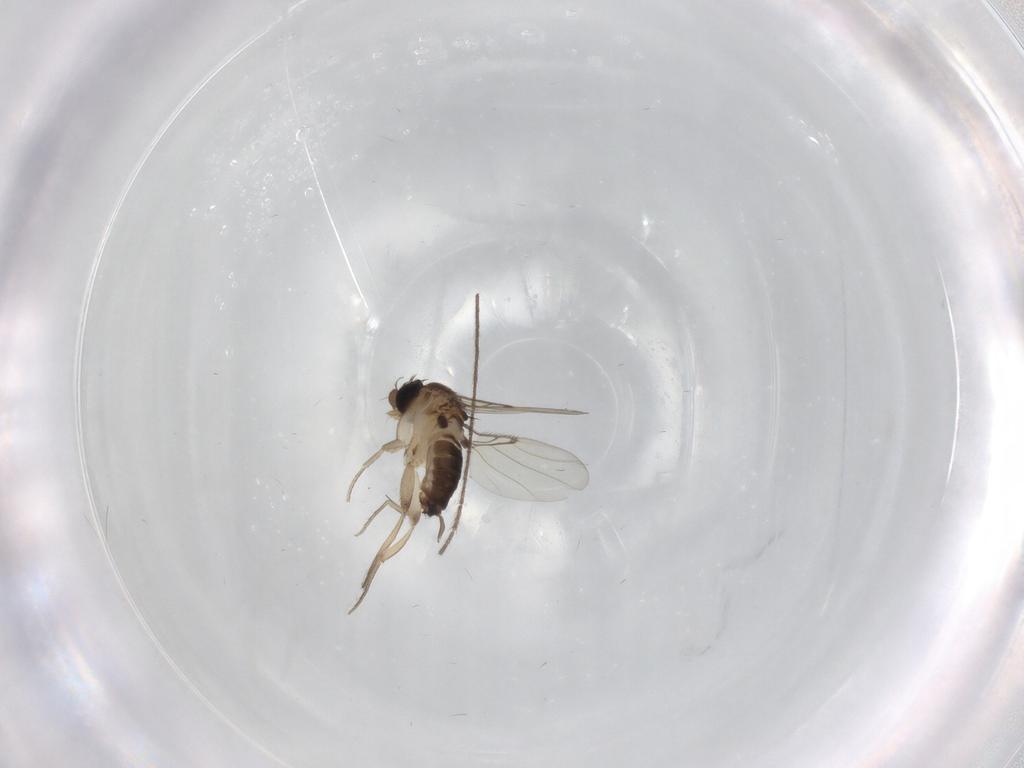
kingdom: Animalia
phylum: Arthropoda
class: Insecta
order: Diptera
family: Limoniidae
